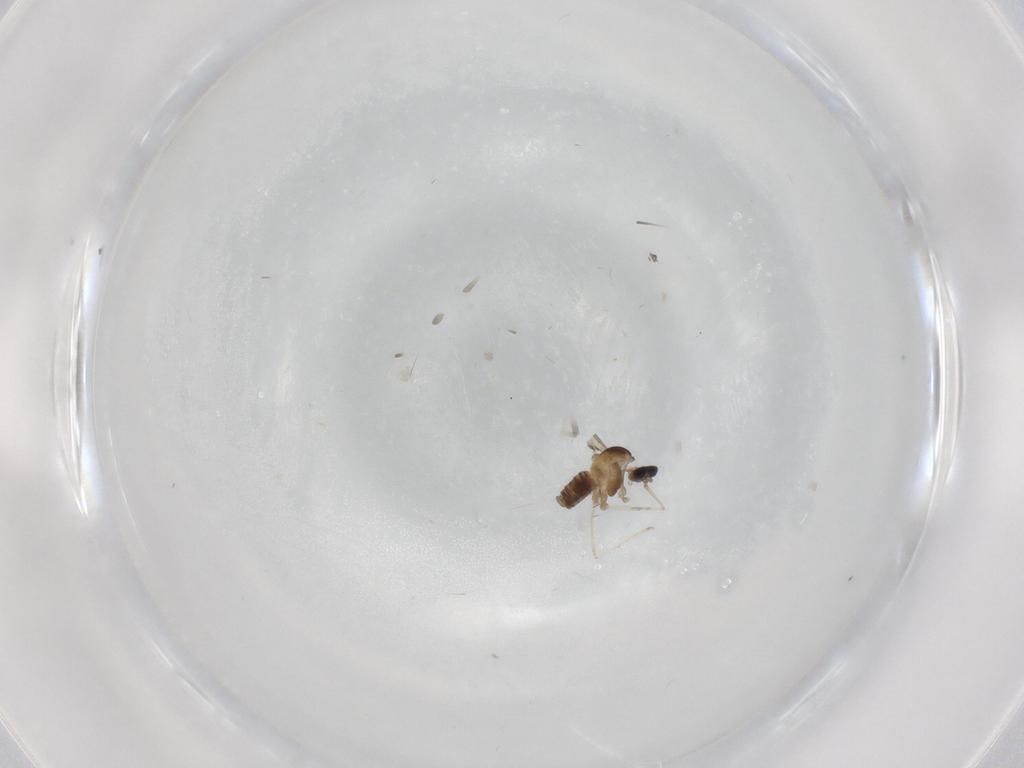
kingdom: Animalia
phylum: Arthropoda
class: Insecta
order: Diptera
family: Cecidomyiidae
